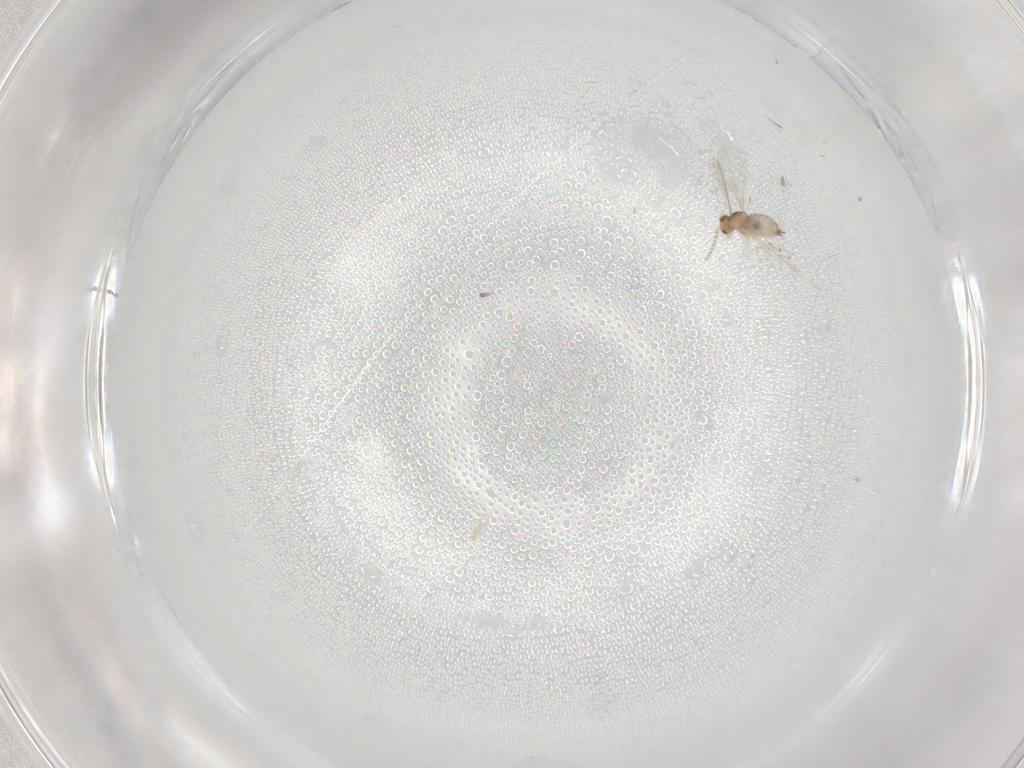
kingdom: Animalia
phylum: Arthropoda
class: Insecta
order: Diptera
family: Cecidomyiidae
